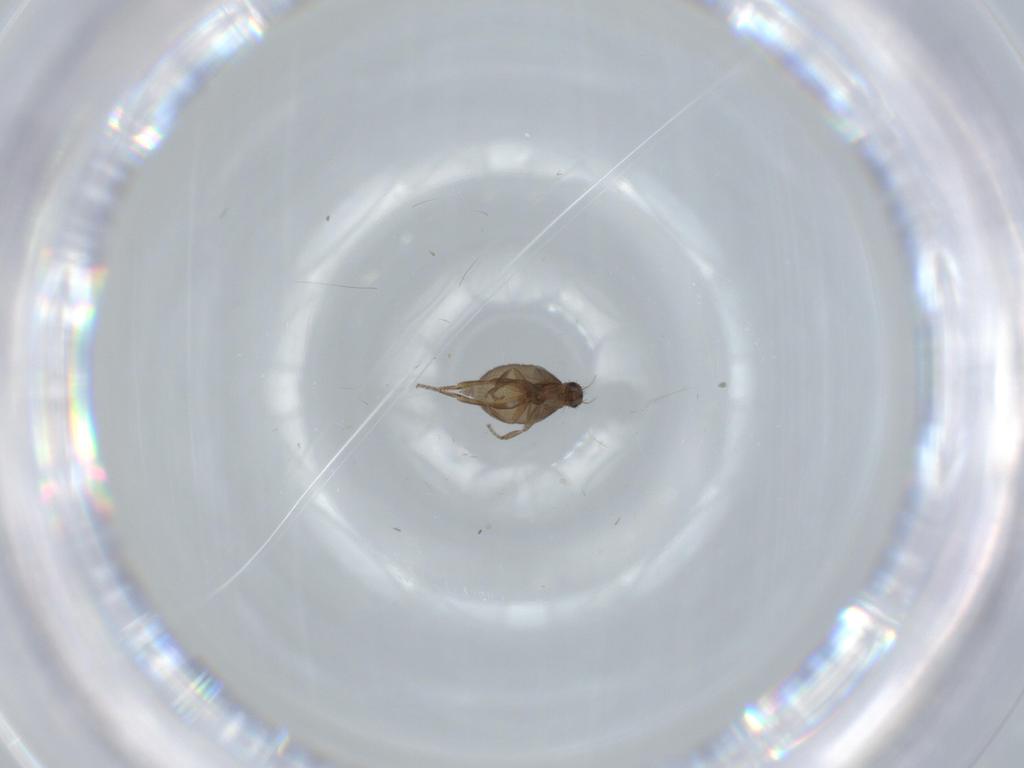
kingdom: Animalia
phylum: Arthropoda
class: Insecta
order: Diptera
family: Phoridae
